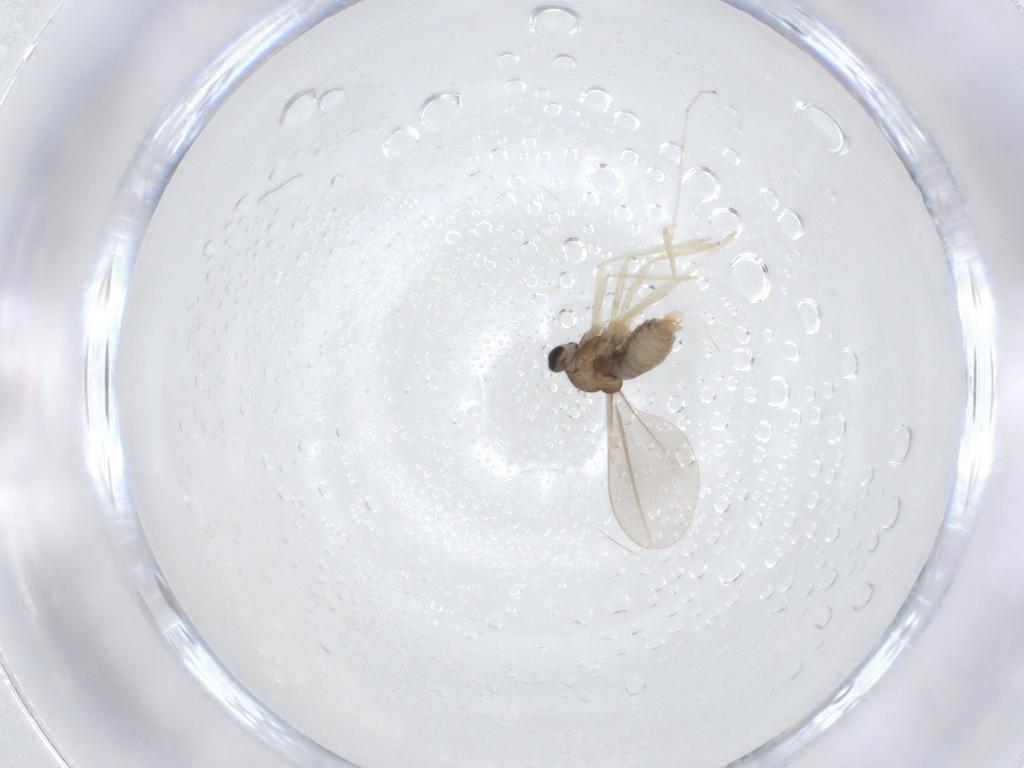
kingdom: Animalia
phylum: Arthropoda
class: Insecta
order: Diptera
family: Cecidomyiidae
